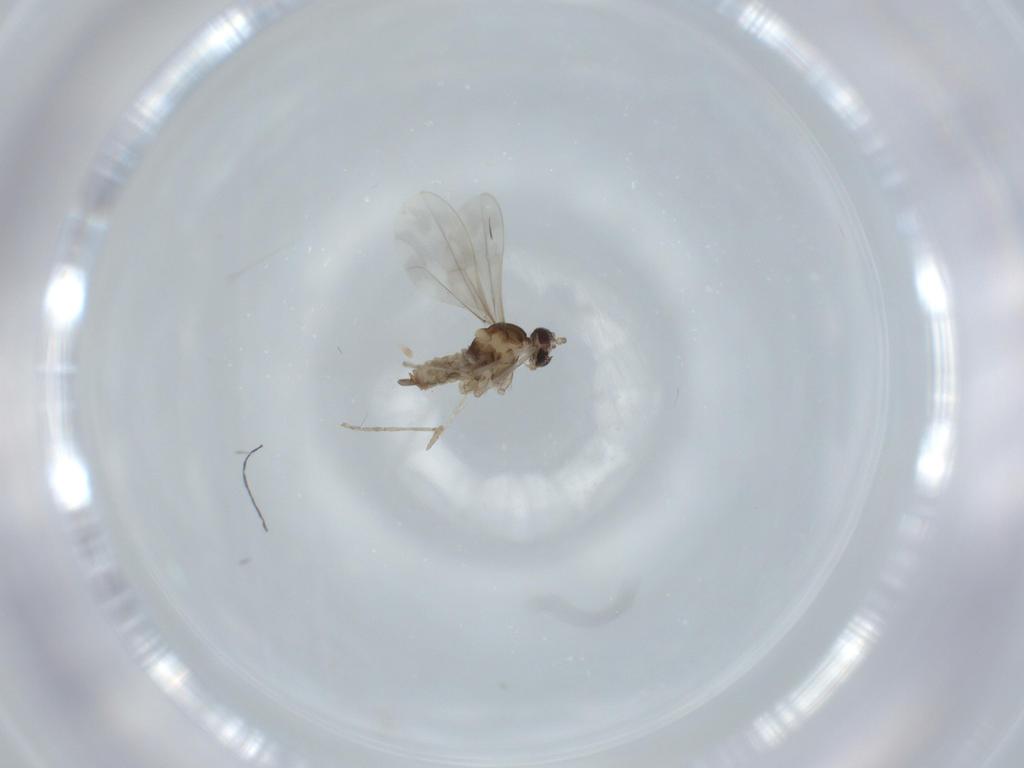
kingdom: Animalia
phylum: Arthropoda
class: Insecta
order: Diptera
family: Cecidomyiidae
